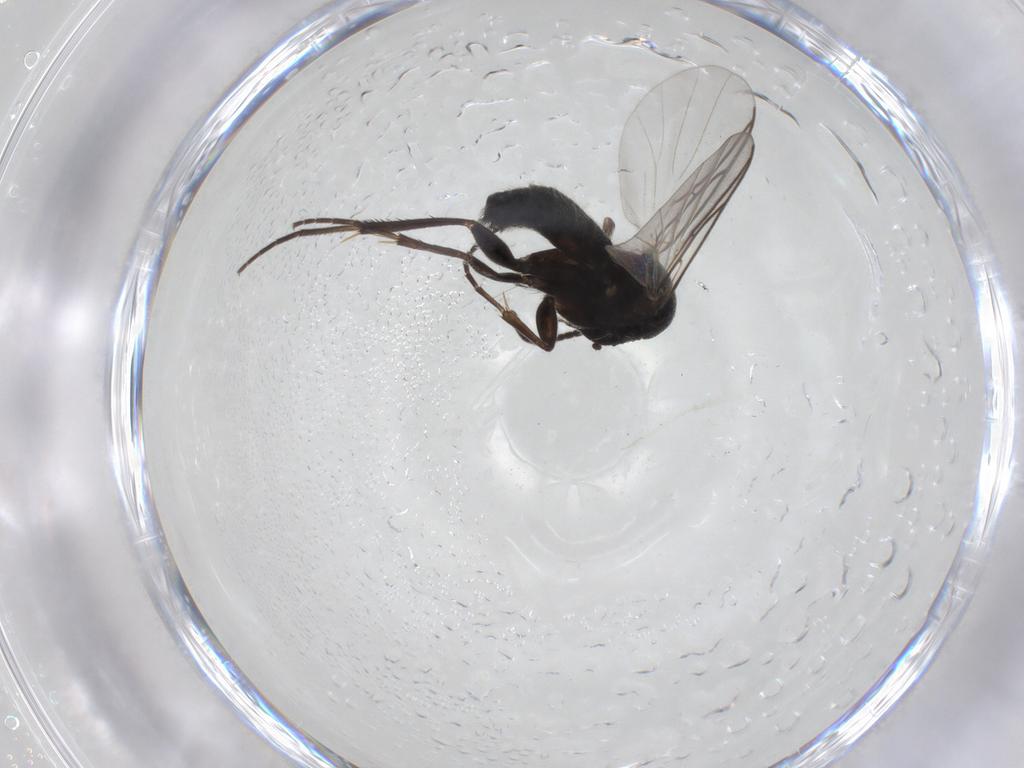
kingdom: Animalia
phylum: Arthropoda
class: Insecta
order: Diptera
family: Mycetophilidae
